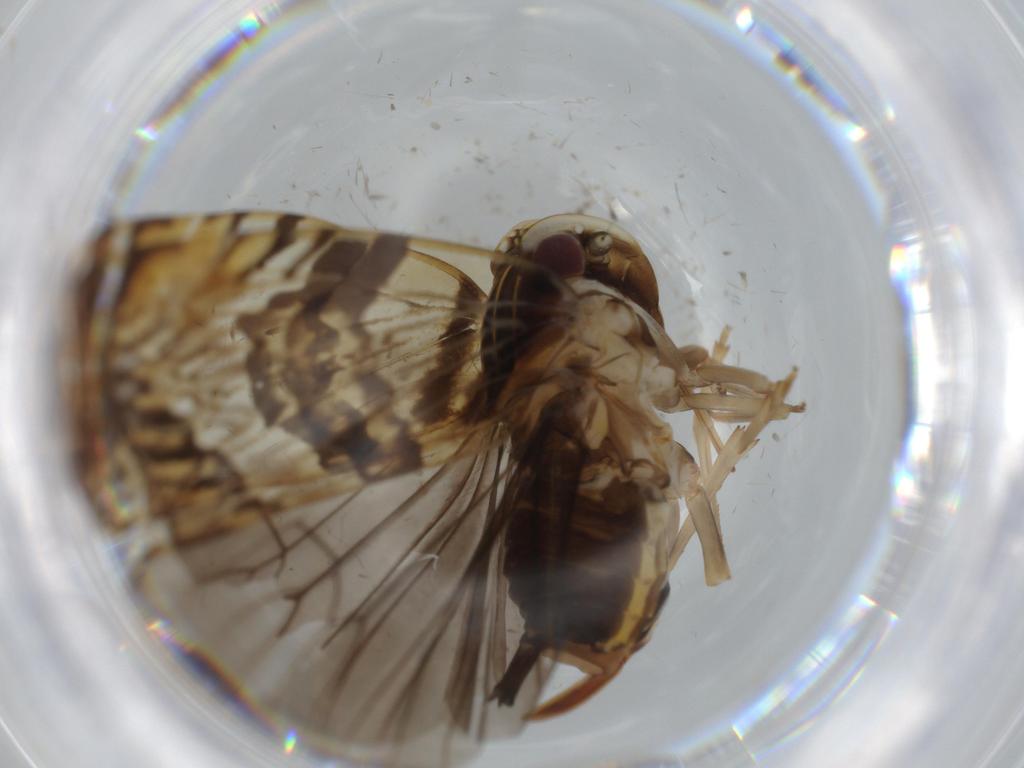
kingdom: Animalia
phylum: Arthropoda
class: Insecta
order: Hemiptera
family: Cixiidae
